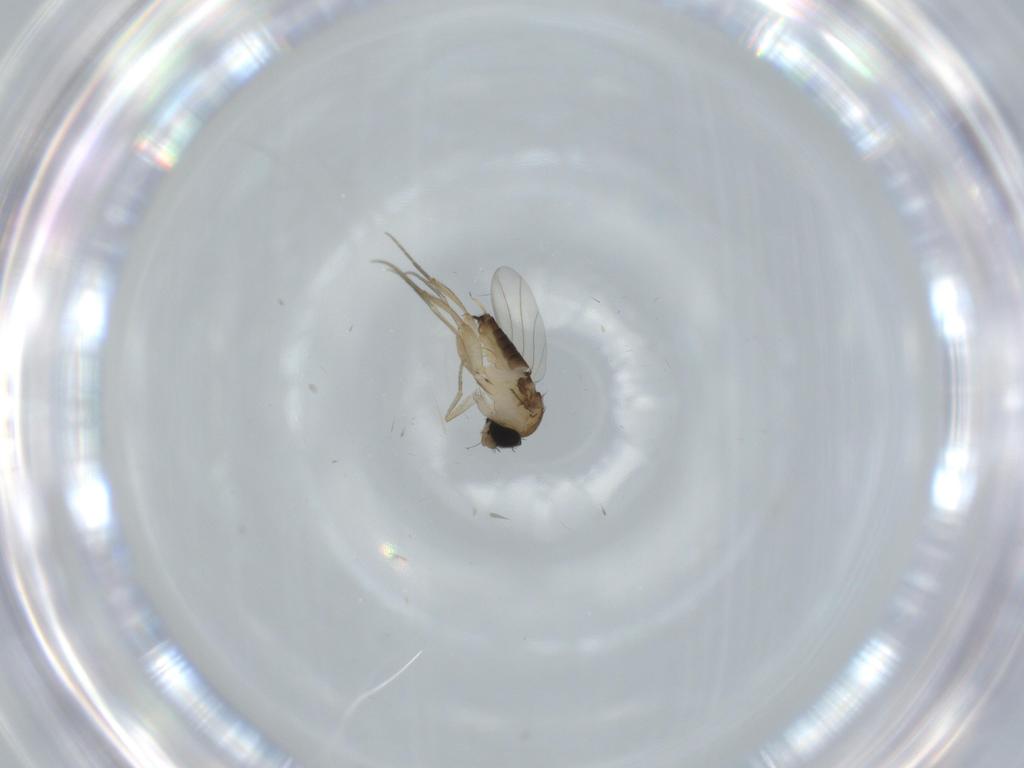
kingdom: Animalia
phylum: Arthropoda
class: Insecta
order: Diptera
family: Phoridae
